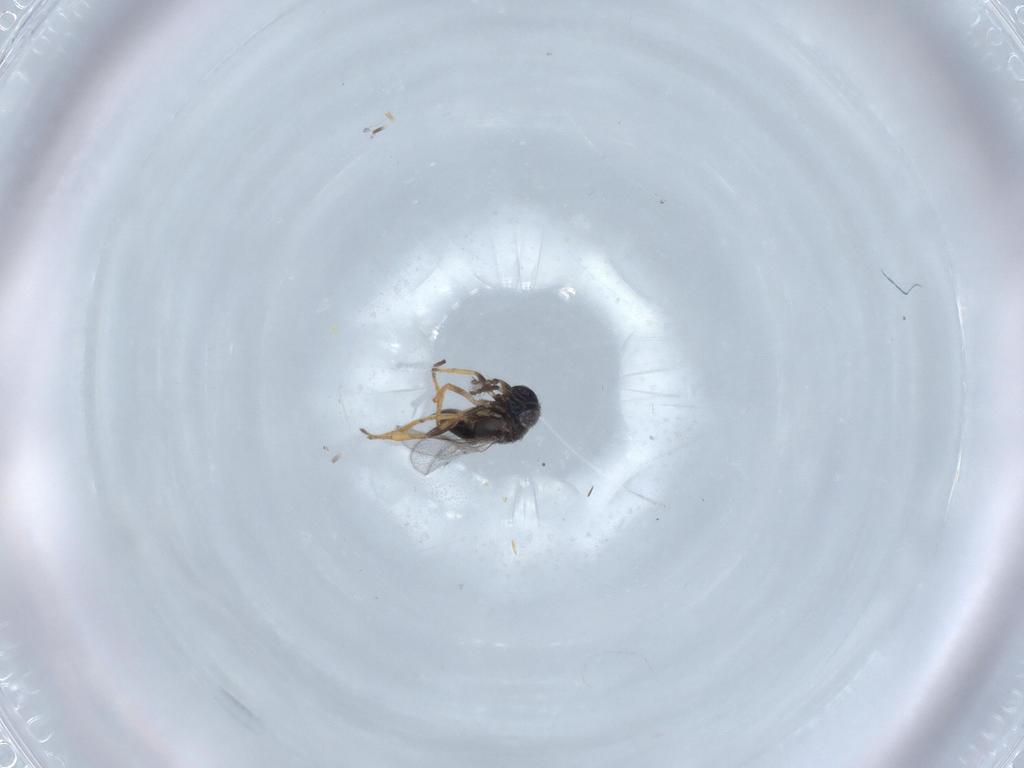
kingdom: Animalia
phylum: Arthropoda
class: Insecta
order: Hymenoptera
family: Encyrtidae
